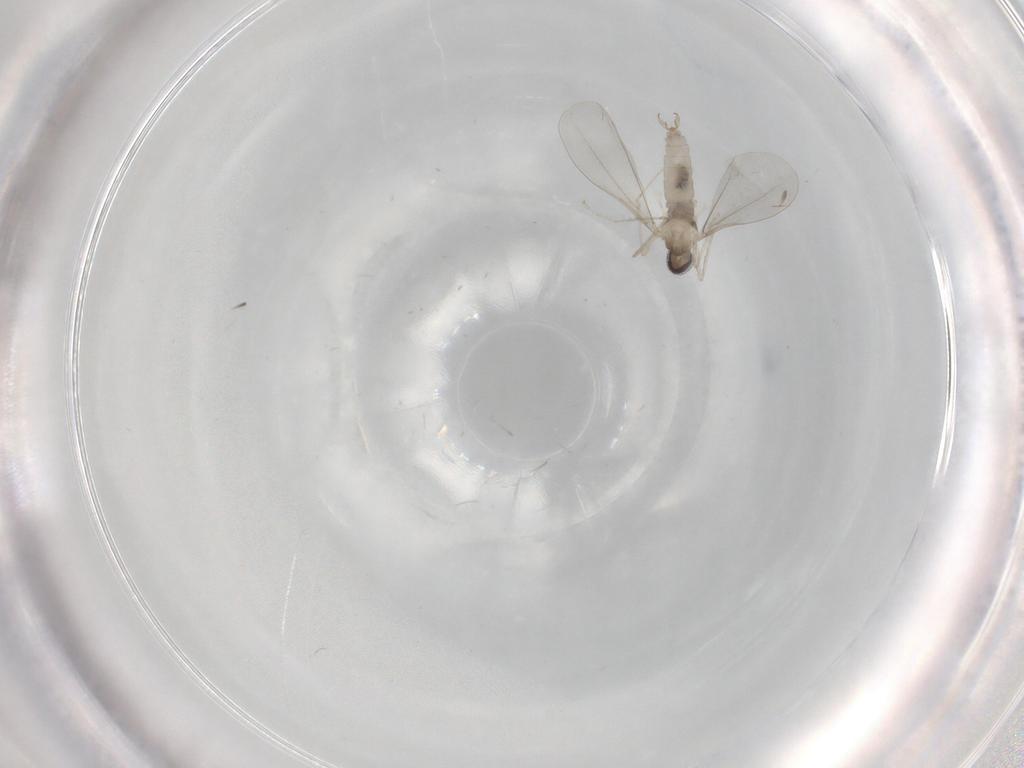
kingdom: Animalia
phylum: Arthropoda
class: Insecta
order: Diptera
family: Cecidomyiidae
